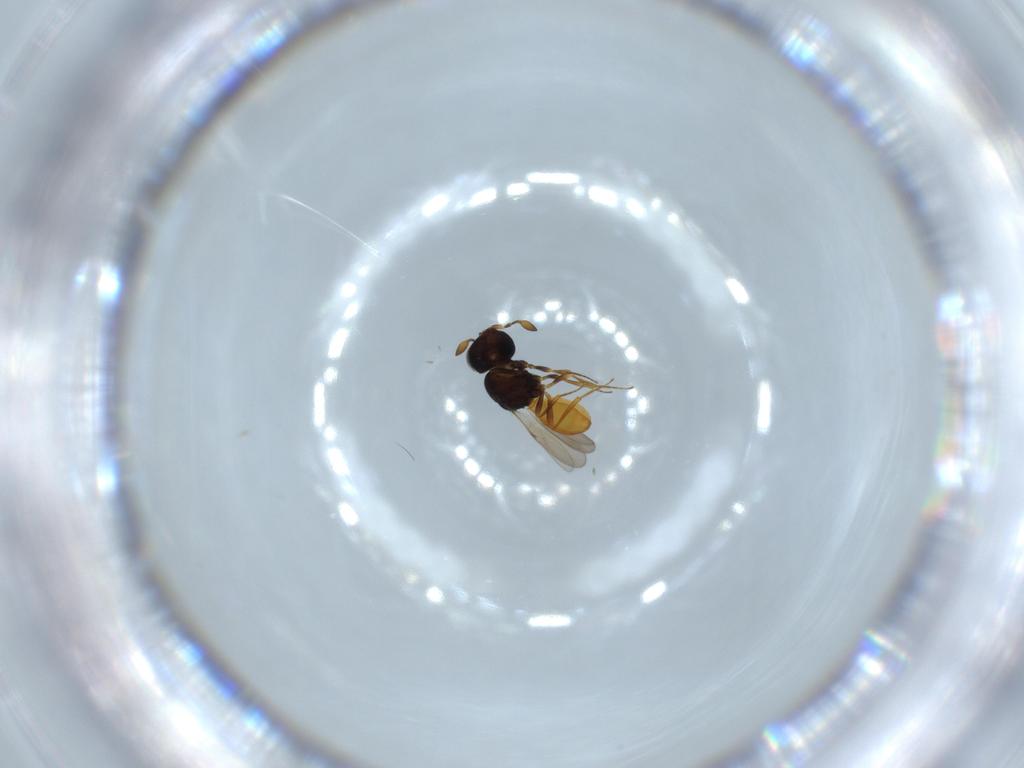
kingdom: Animalia
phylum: Arthropoda
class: Insecta
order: Hymenoptera
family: Scelionidae
